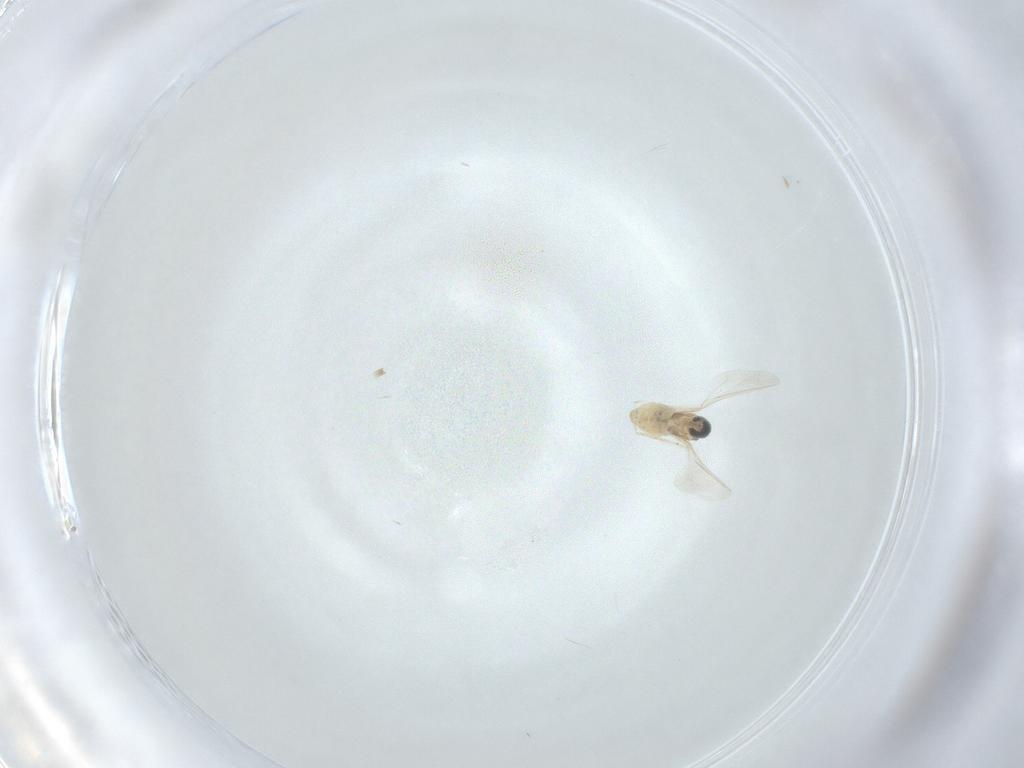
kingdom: Animalia
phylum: Arthropoda
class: Insecta
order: Diptera
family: Cecidomyiidae
